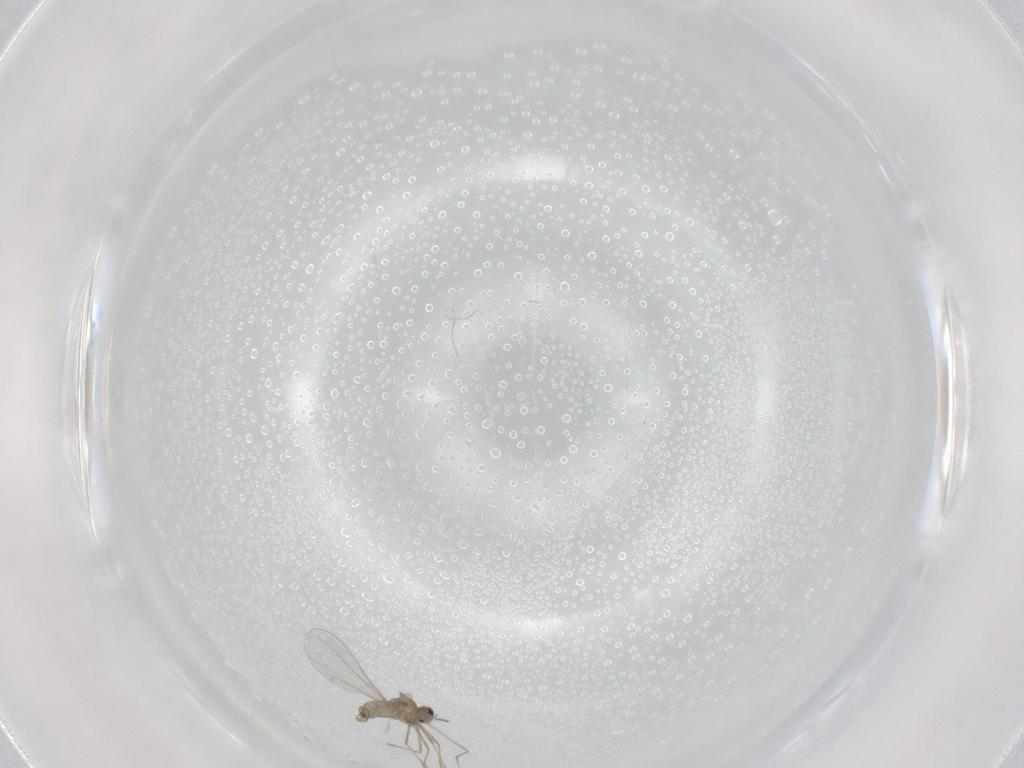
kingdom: Animalia
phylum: Arthropoda
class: Insecta
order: Diptera
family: Cecidomyiidae
